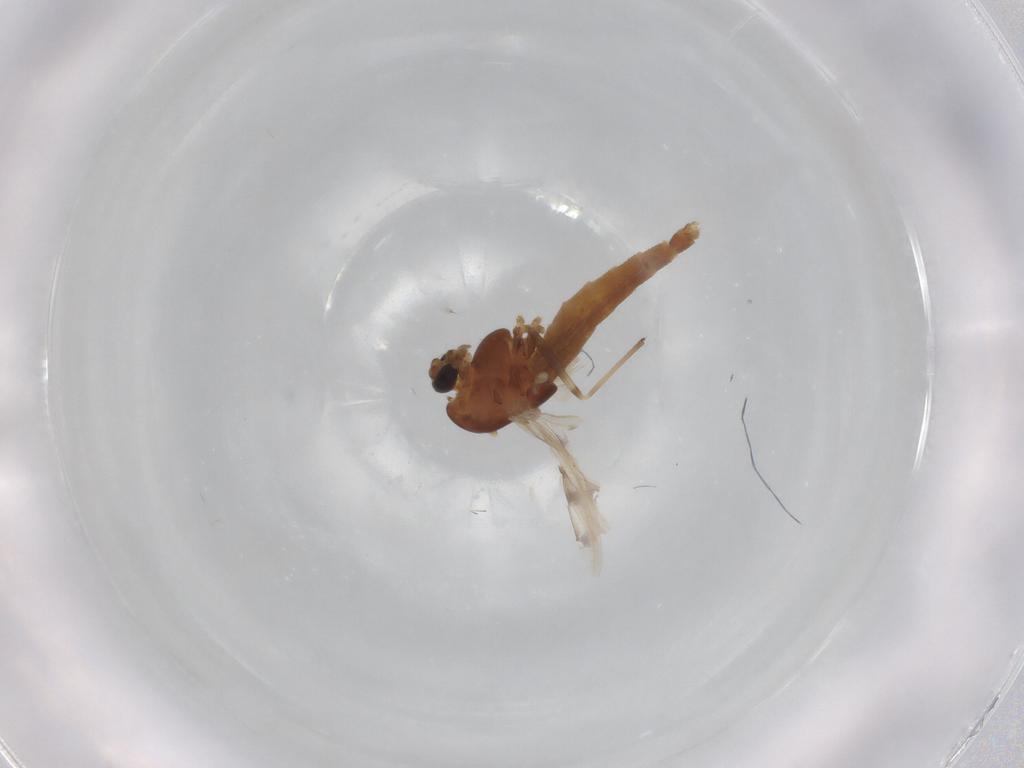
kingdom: Animalia
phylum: Arthropoda
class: Insecta
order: Diptera
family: Chironomidae
